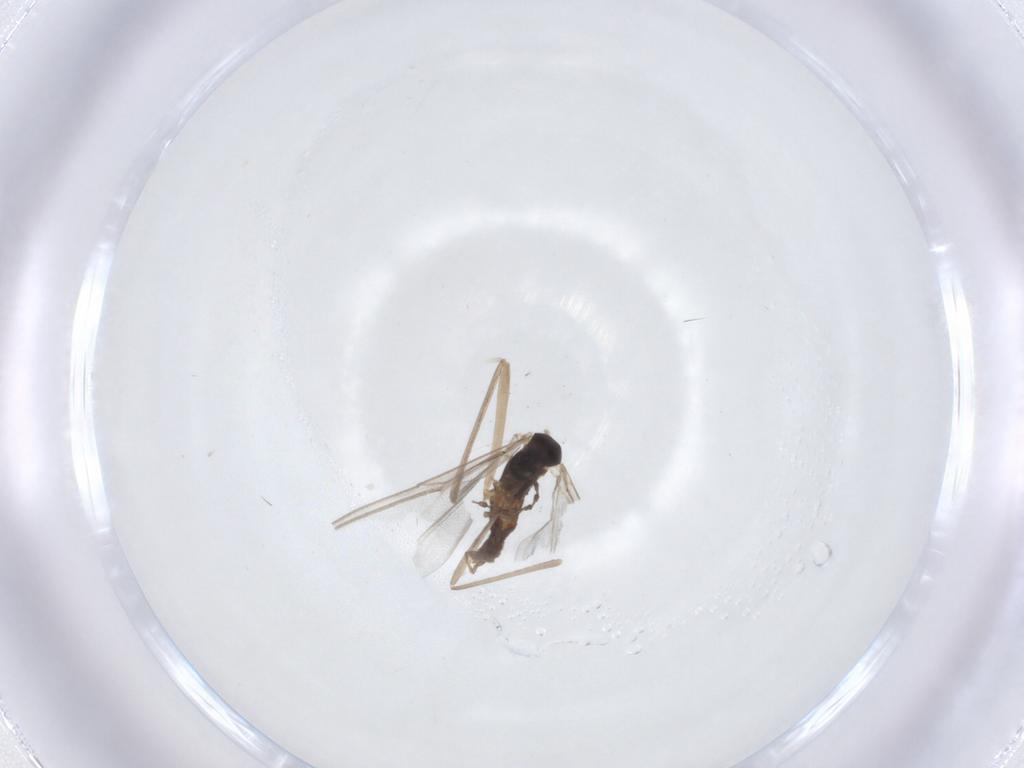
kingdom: Animalia
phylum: Arthropoda
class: Insecta
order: Diptera
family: Cecidomyiidae
